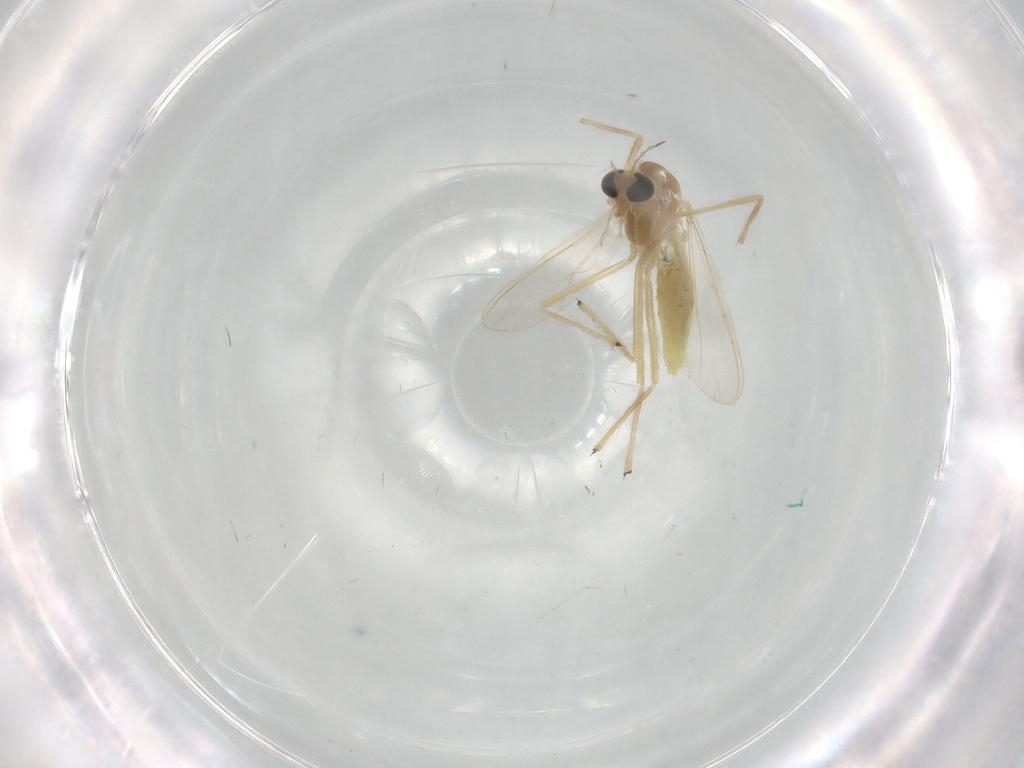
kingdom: Animalia
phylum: Arthropoda
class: Insecta
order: Diptera
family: Chironomidae
